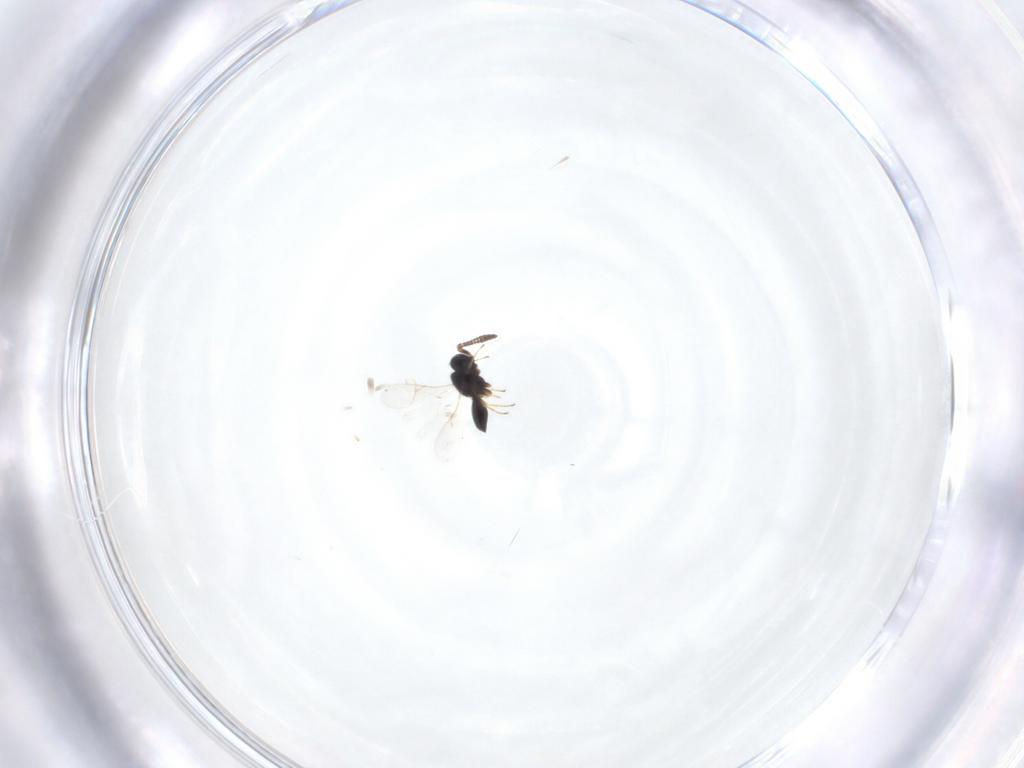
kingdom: Animalia
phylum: Arthropoda
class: Insecta
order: Hymenoptera
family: Scelionidae
